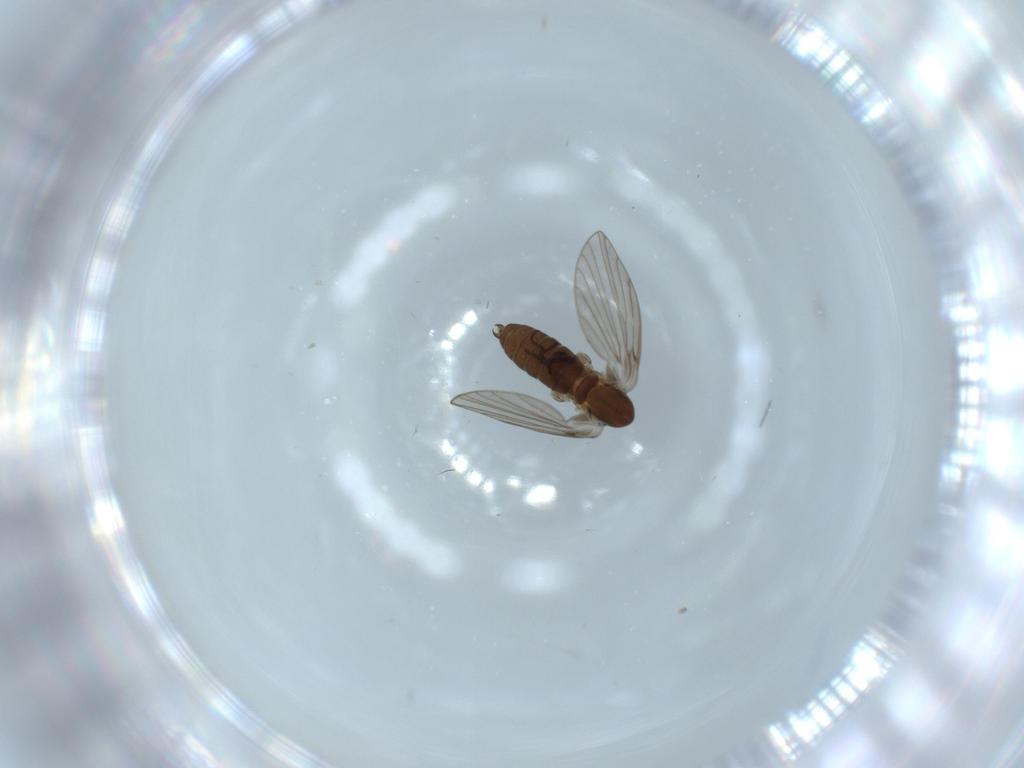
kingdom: Animalia
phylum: Arthropoda
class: Insecta
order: Diptera
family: Psychodidae
